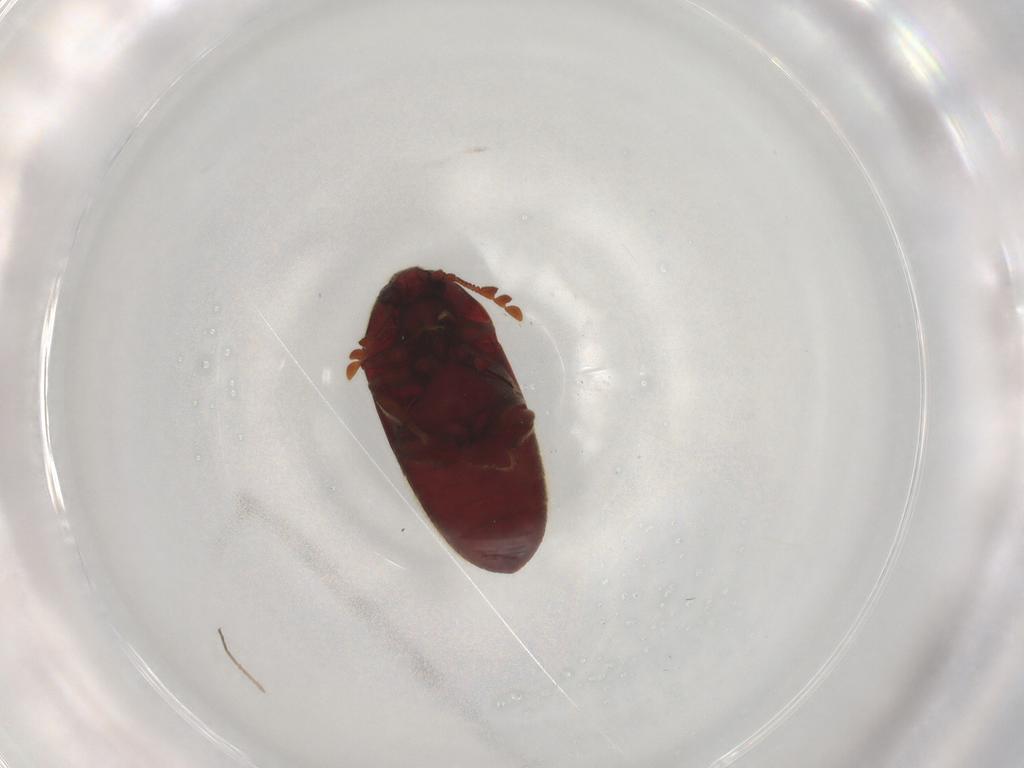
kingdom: Animalia
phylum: Arthropoda
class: Insecta
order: Coleoptera
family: Throscidae
